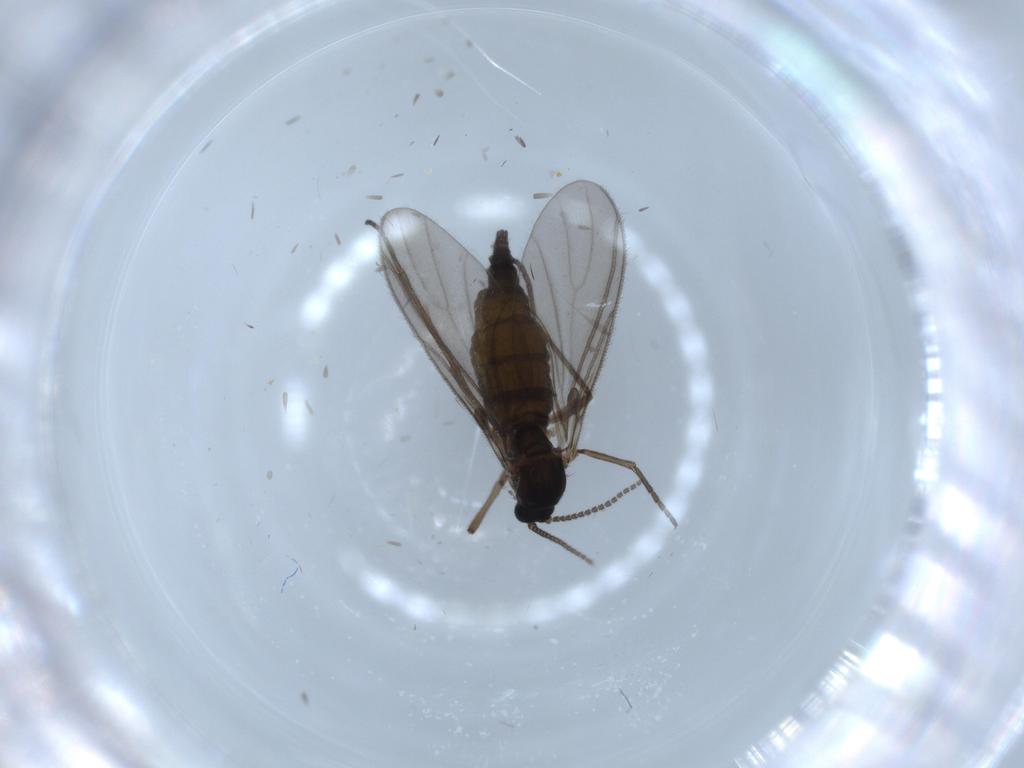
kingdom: Animalia
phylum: Arthropoda
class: Insecta
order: Diptera
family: Sciaridae
